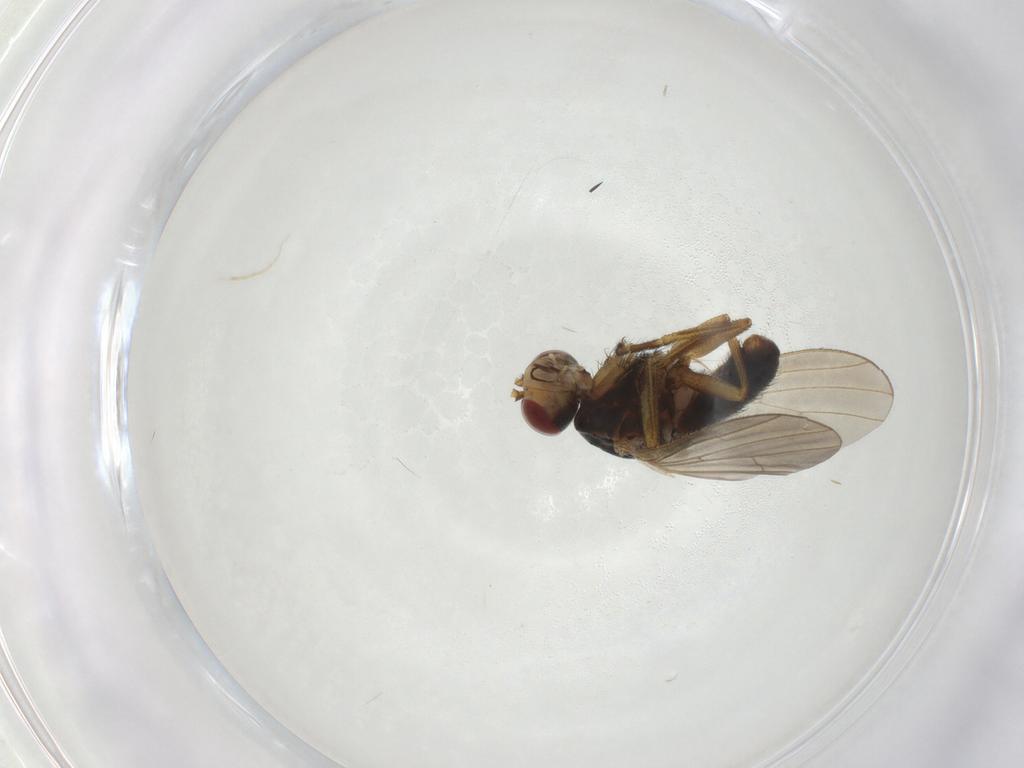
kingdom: Animalia
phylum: Arthropoda
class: Insecta
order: Diptera
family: Heleomyzidae
